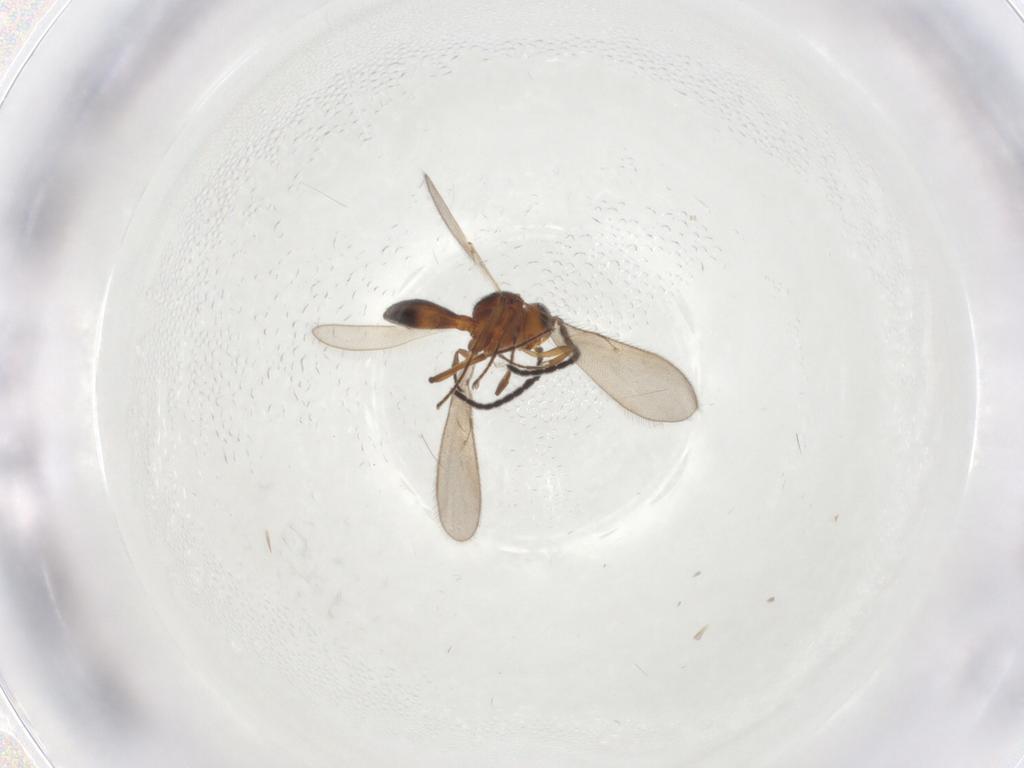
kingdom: Animalia
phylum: Arthropoda
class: Insecta
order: Hymenoptera
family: Scelionidae
